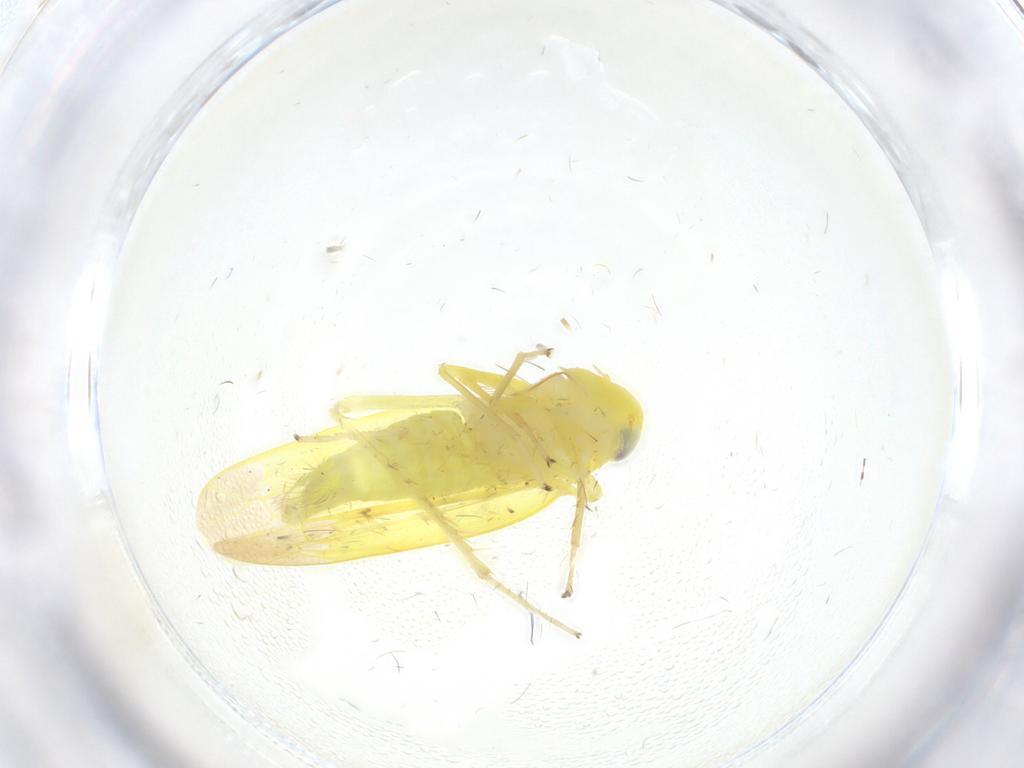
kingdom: Animalia
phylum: Arthropoda
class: Insecta
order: Hemiptera
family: Cicadellidae
